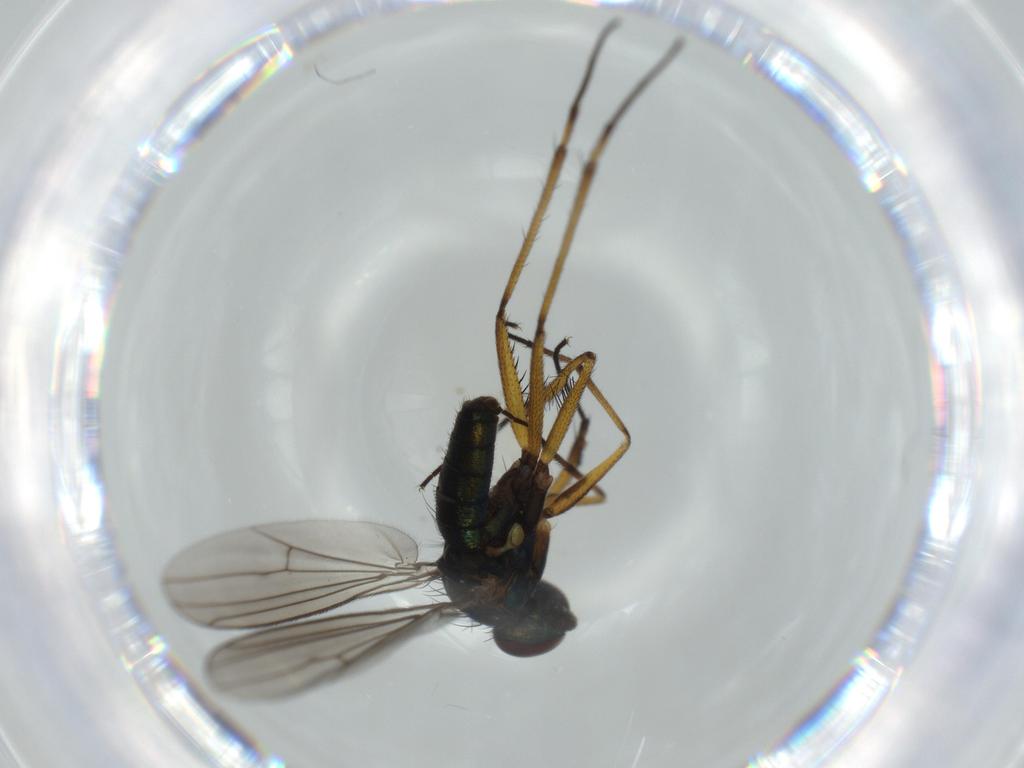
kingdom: Animalia
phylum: Arthropoda
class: Insecta
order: Diptera
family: Dolichopodidae
